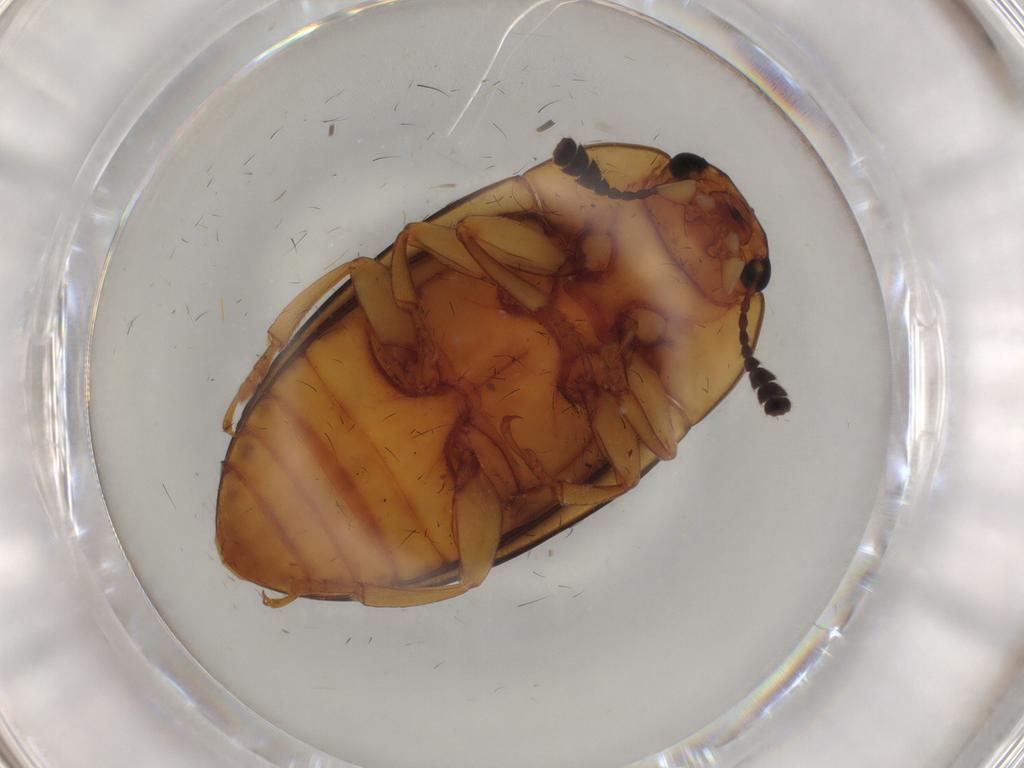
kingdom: Animalia
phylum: Arthropoda
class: Insecta
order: Coleoptera
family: Erotylidae
